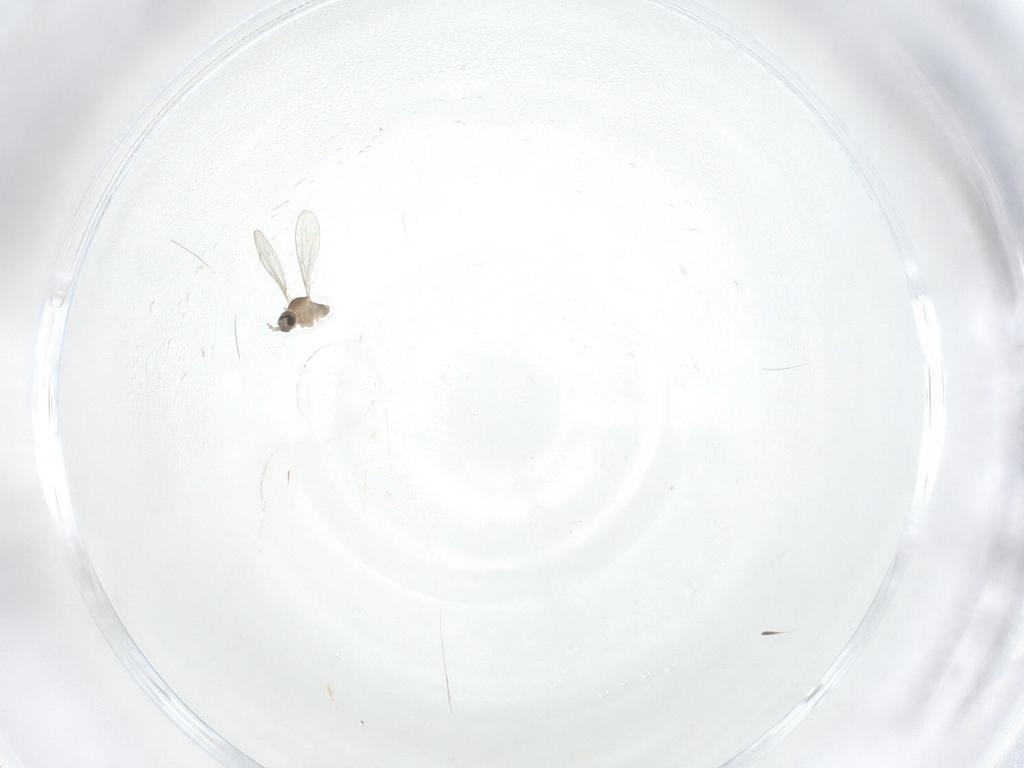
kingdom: Animalia
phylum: Arthropoda
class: Insecta
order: Diptera
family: Cecidomyiidae
